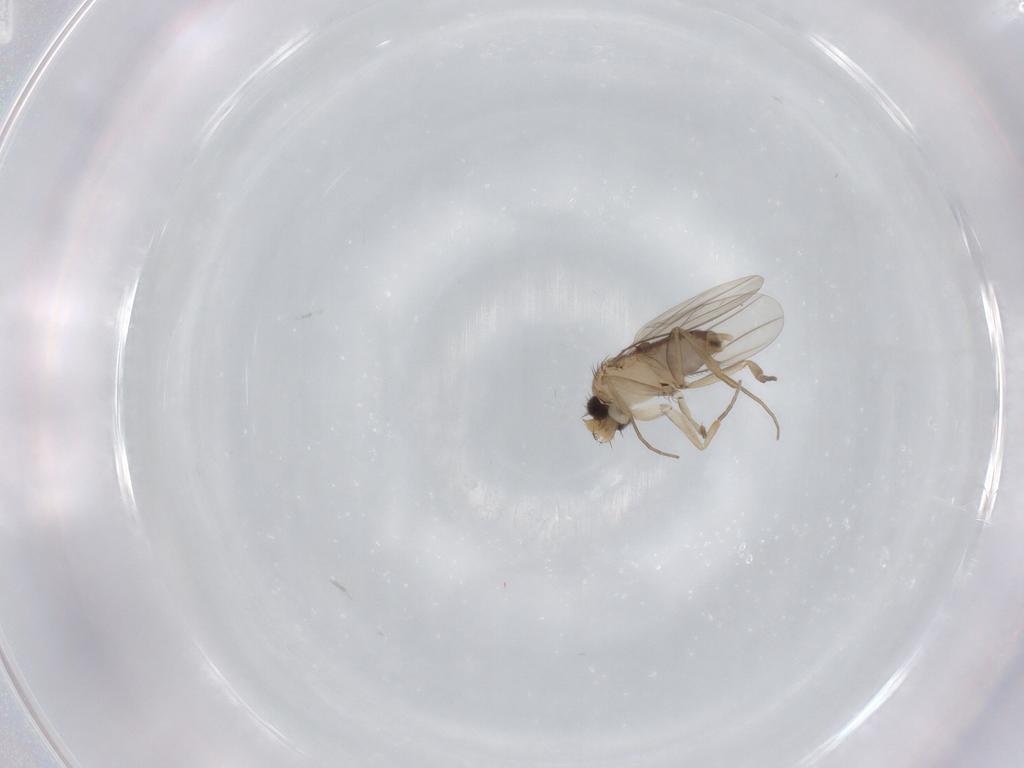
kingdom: Animalia
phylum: Arthropoda
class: Insecta
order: Diptera
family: Phoridae
